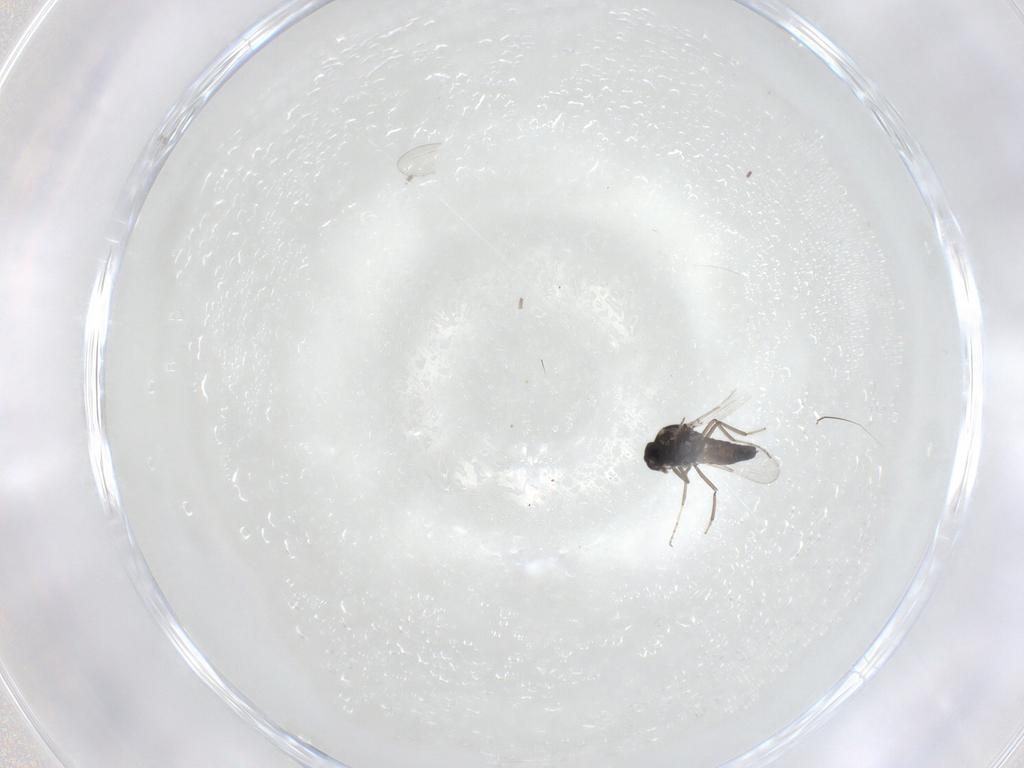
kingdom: Animalia
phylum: Arthropoda
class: Insecta
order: Diptera
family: Ceratopogonidae
